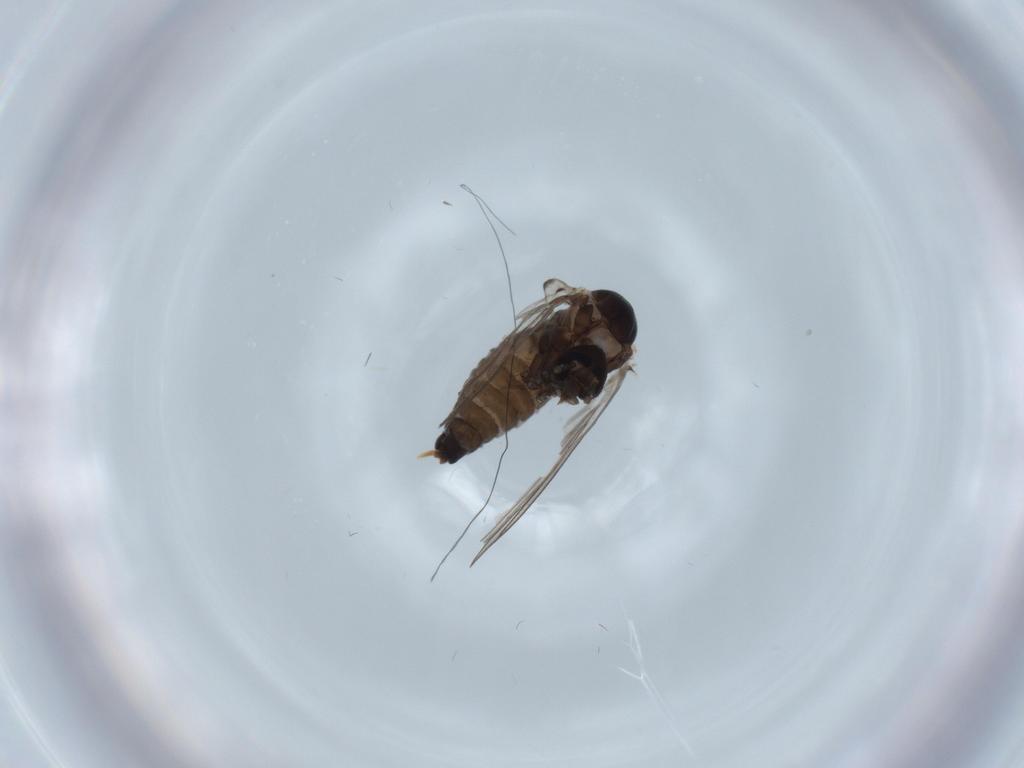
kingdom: Animalia
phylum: Arthropoda
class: Insecta
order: Diptera
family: Psychodidae
